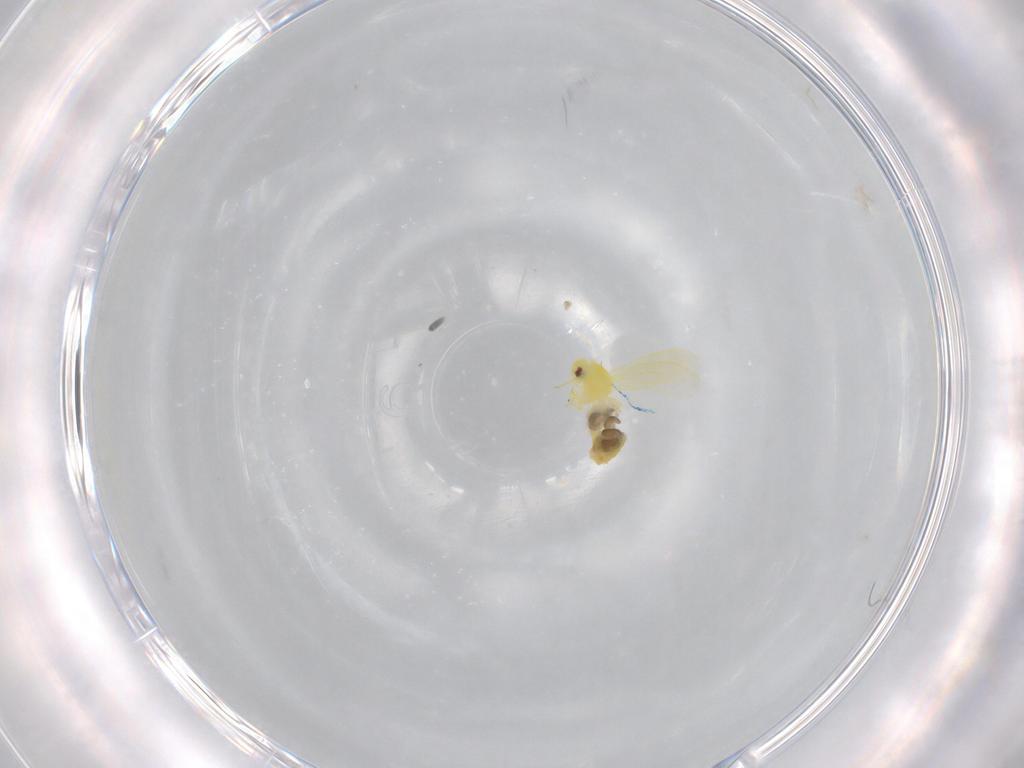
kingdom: Animalia
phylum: Arthropoda
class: Insecta
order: Hemiptera
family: Aleyrodidae
